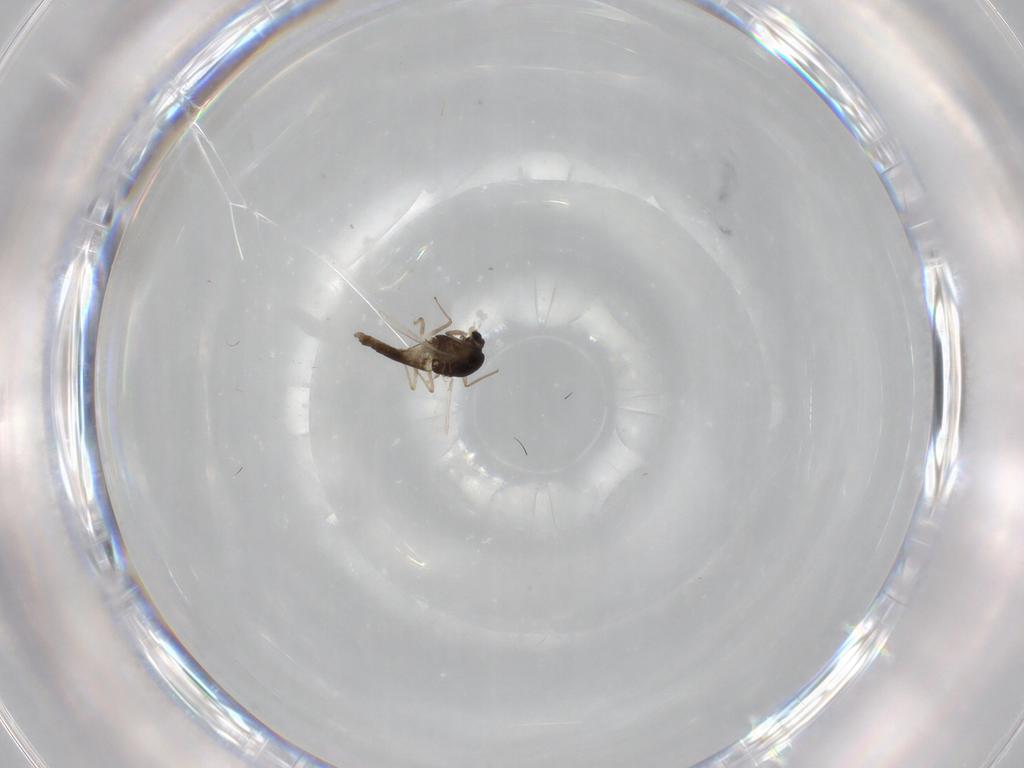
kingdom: Animalia
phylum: Arthropoda
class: Insecta
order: Diptera
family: Chironomidae
